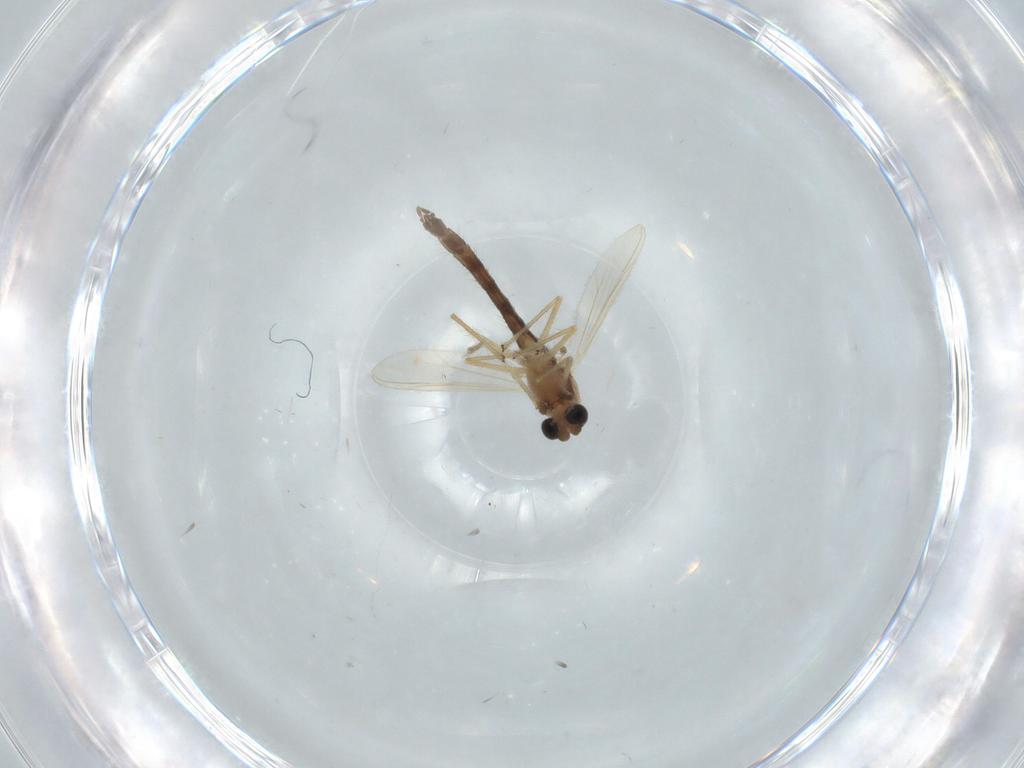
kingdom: Animalia
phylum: Arthropoda
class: Insecta
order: Diptera
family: Chironomidae
